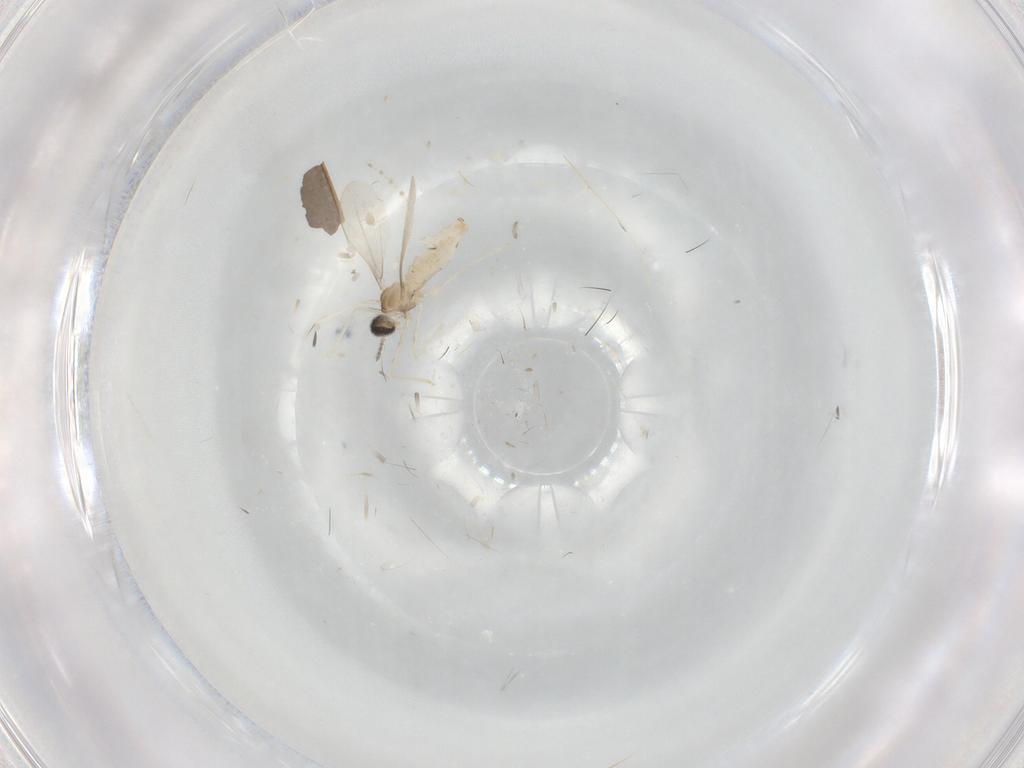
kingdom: Animalia
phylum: Arthropoda
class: Insecta
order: Diptera
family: Cecidomyiidae
